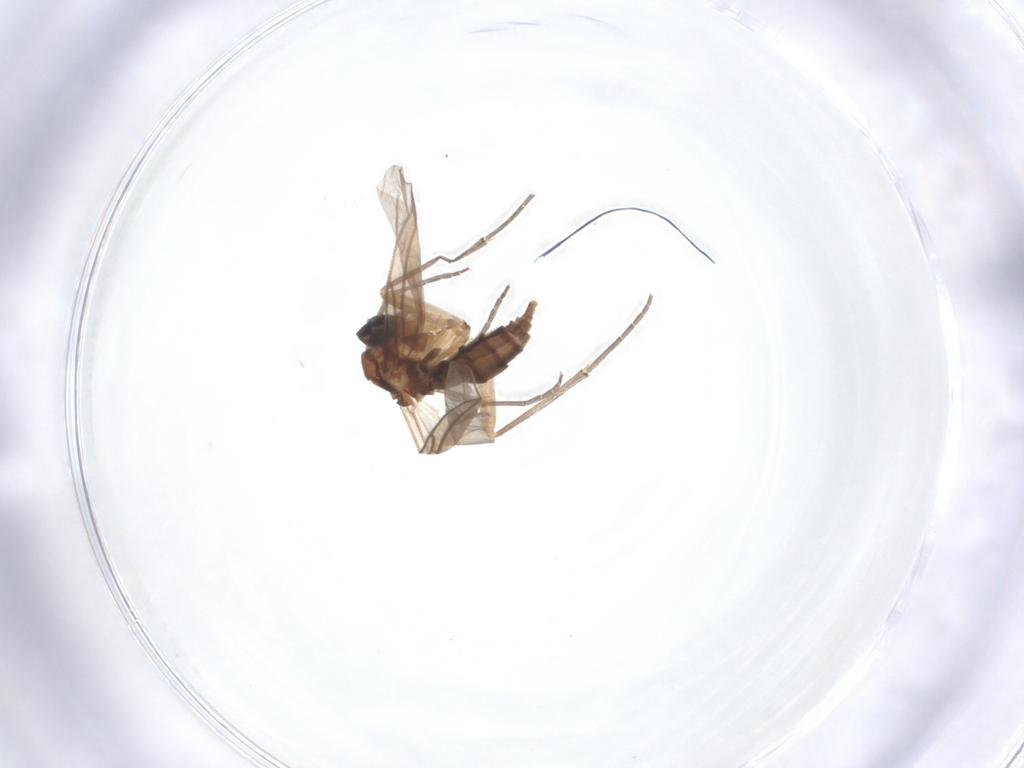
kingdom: Animalia
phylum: Arthropoda
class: Insecta
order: Diptera
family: Sciaridae
